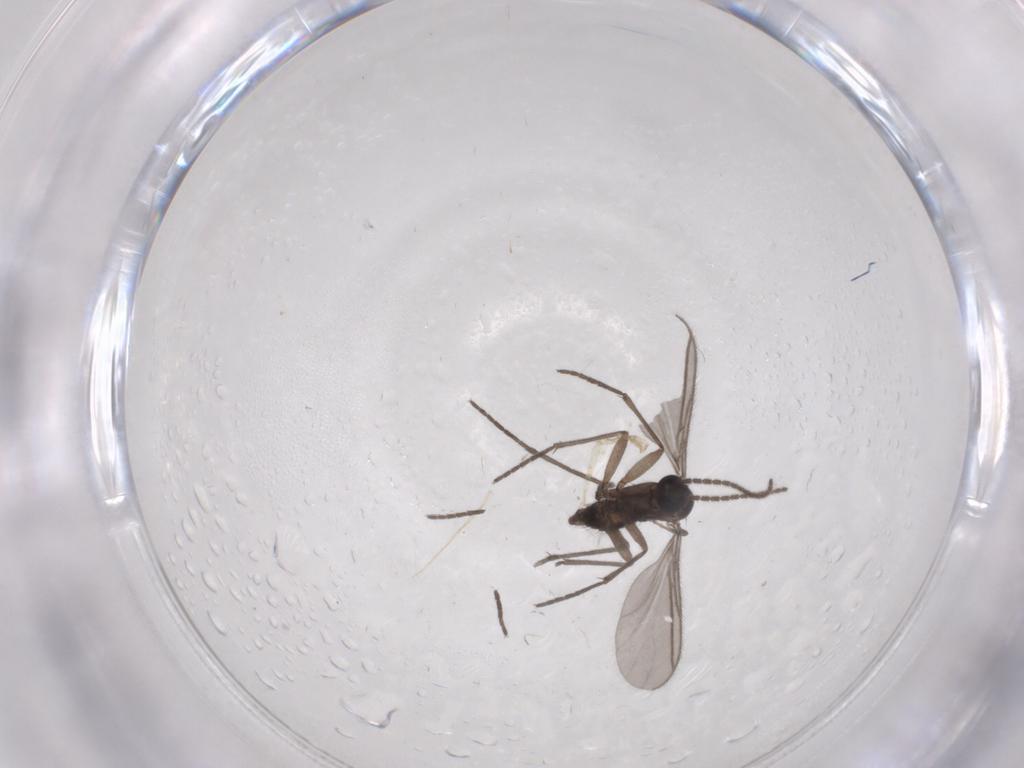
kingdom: Animalia
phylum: Arthropoda
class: Insecta
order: Diptera
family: Sciaridae
